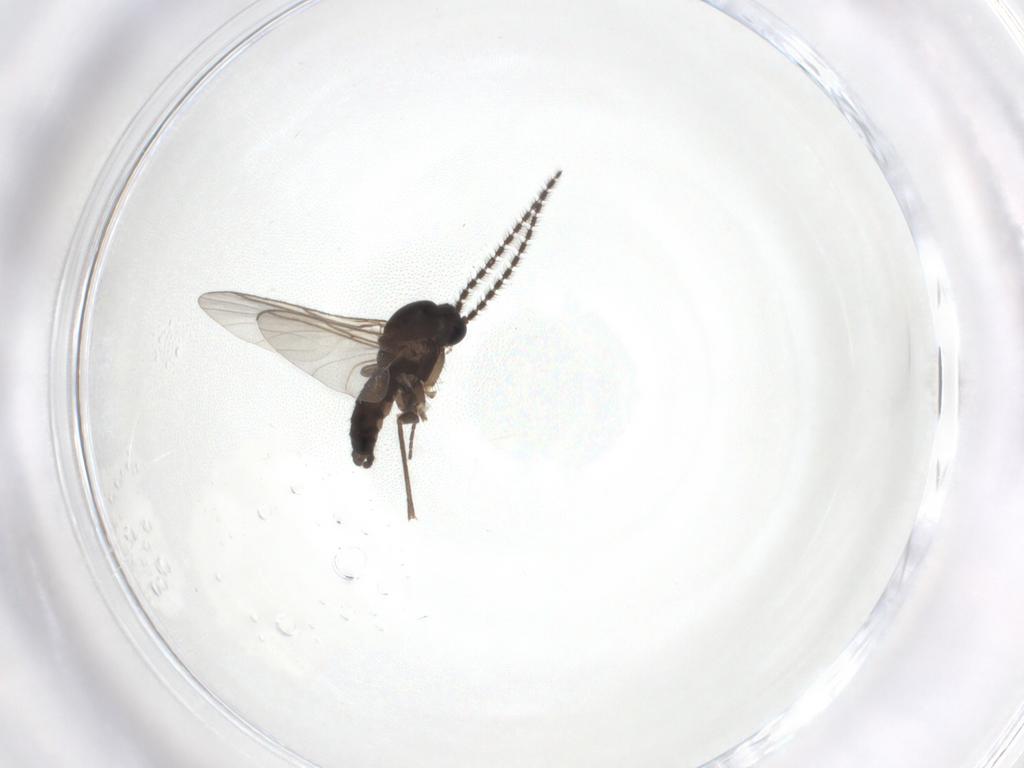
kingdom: Animalia
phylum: Arthropoda
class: Insecta
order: Diptera
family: Sciaridae
